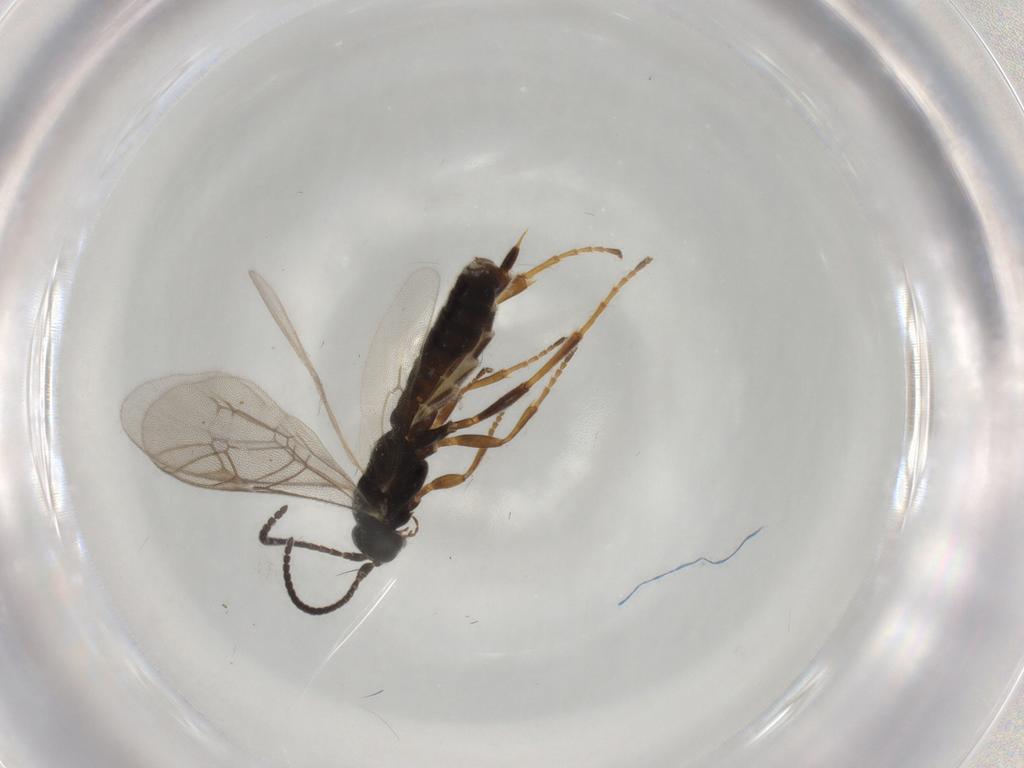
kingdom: Animalia
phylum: Arthropoda
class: Insecta
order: Hymenoptera
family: Ichneumonidae
